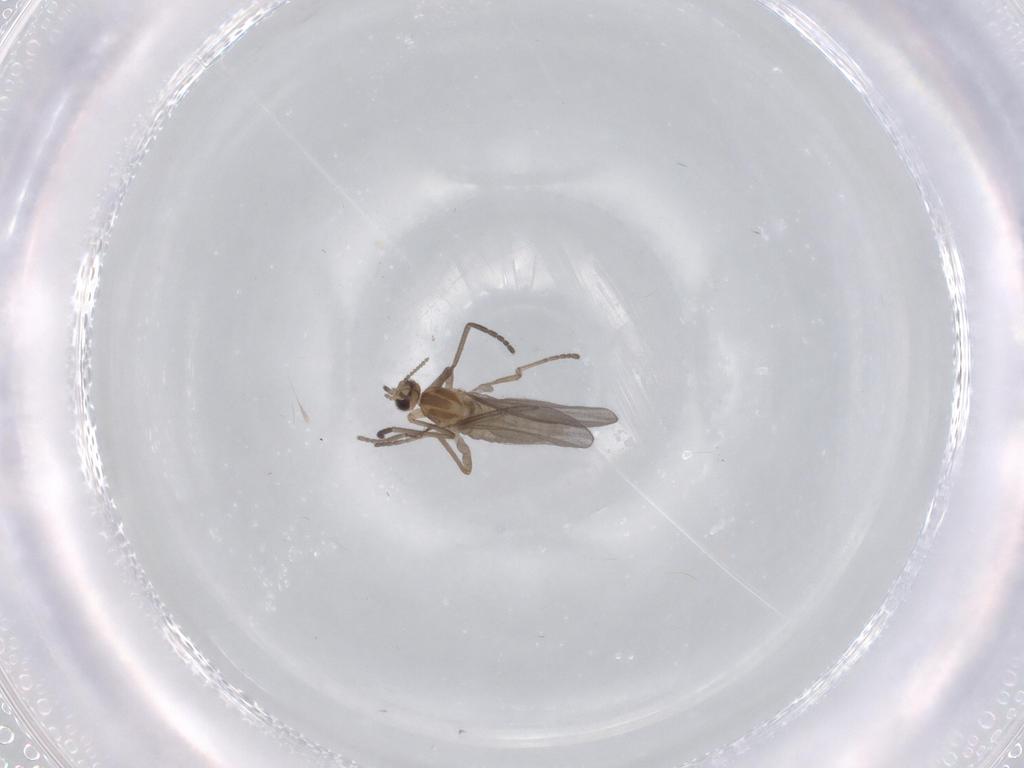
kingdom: Animalia
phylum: Arthropoda
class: Insecta
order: Diptera
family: Cecidomyiidae
